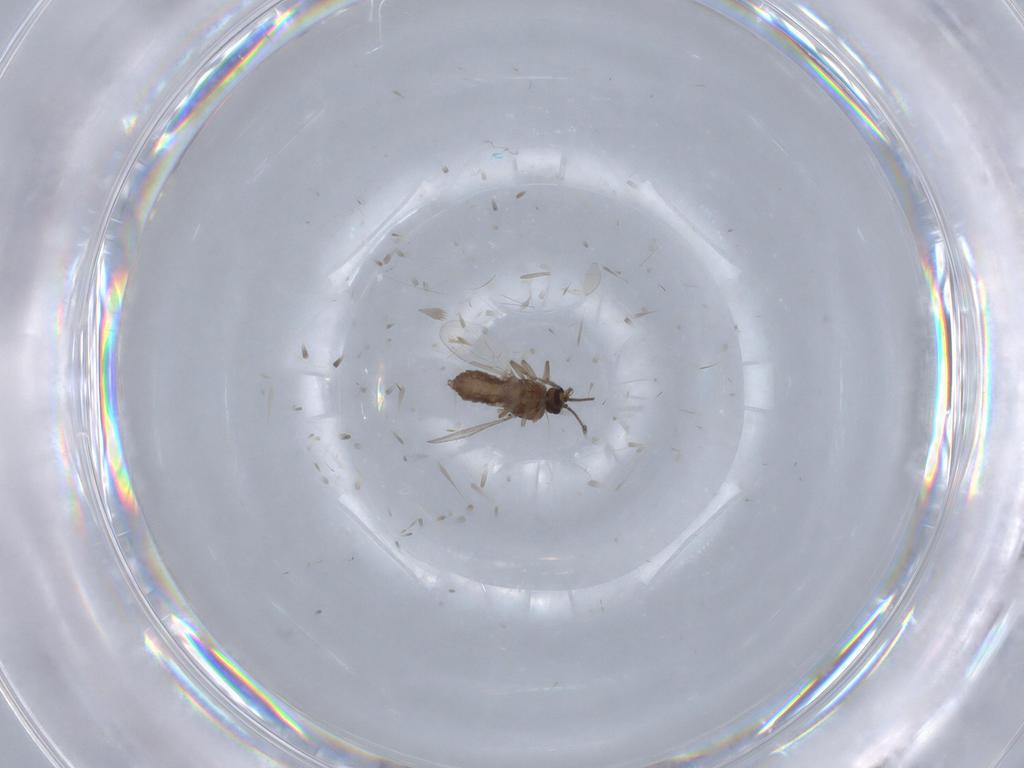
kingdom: Animalia
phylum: Arthropoda
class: Insecta
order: Diptera
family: Ceratopogonidae
